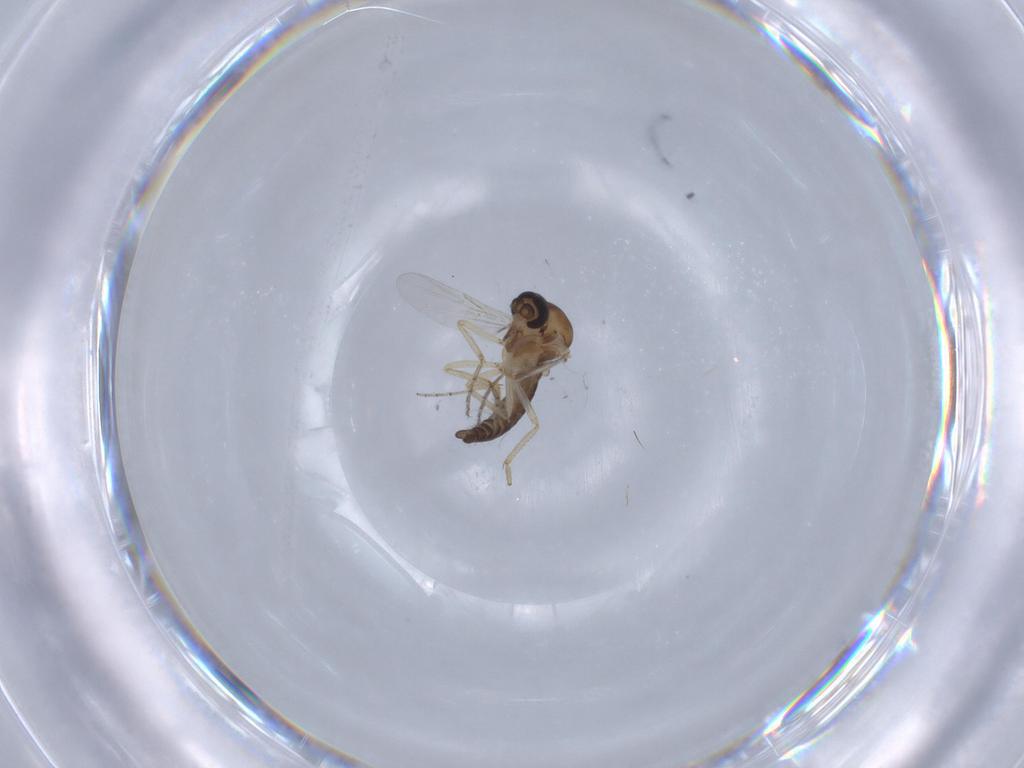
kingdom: Animalia
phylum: Arthropoda
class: Insecta
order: Diptera
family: Ceratopogonidae
